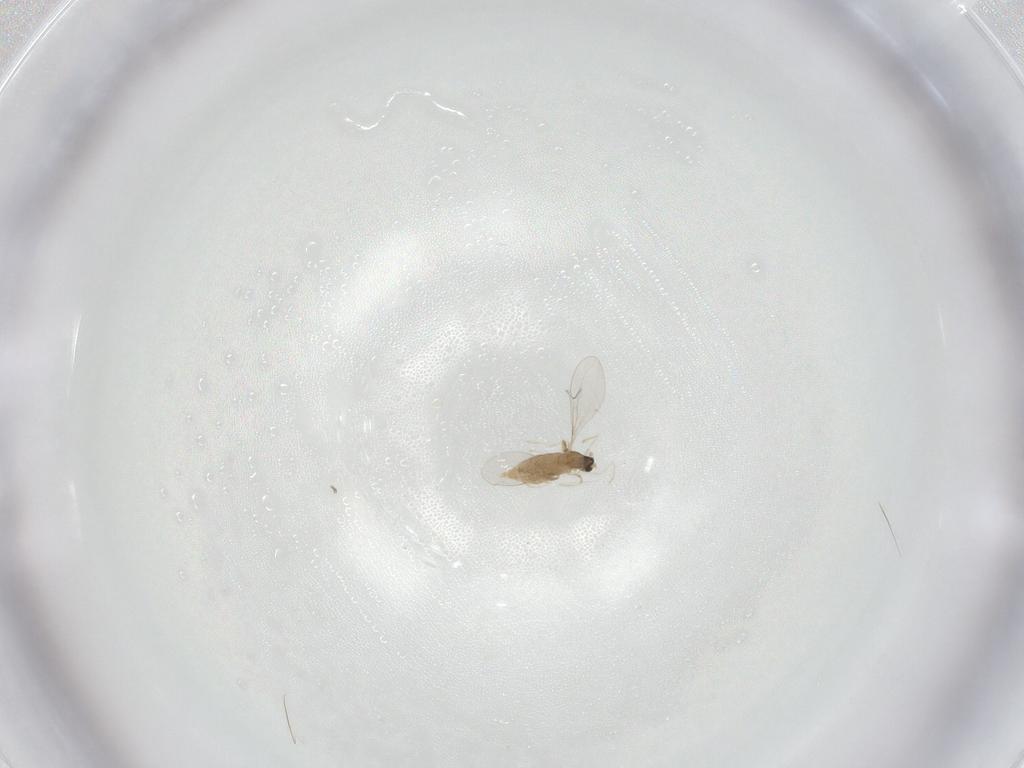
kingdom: Animalia
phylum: Arthropoda
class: Insecta
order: Diptera
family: Cecidomyiidae
